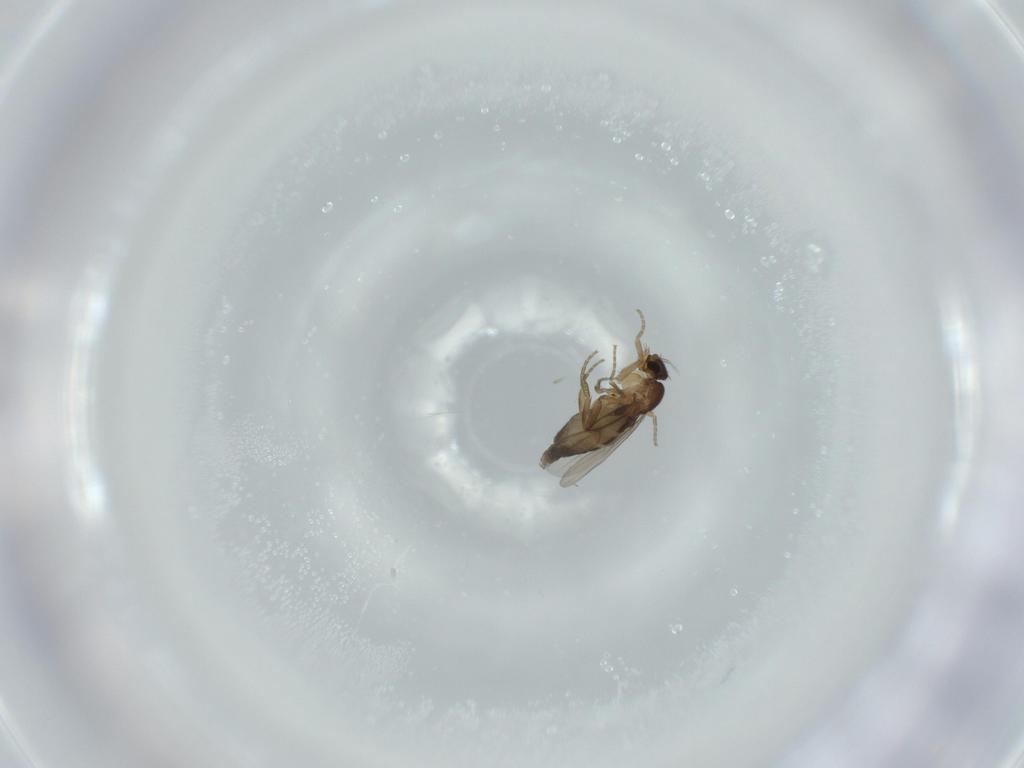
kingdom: Animalia
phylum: Arthropoda
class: Insecta
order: Diptera
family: Phoridae
